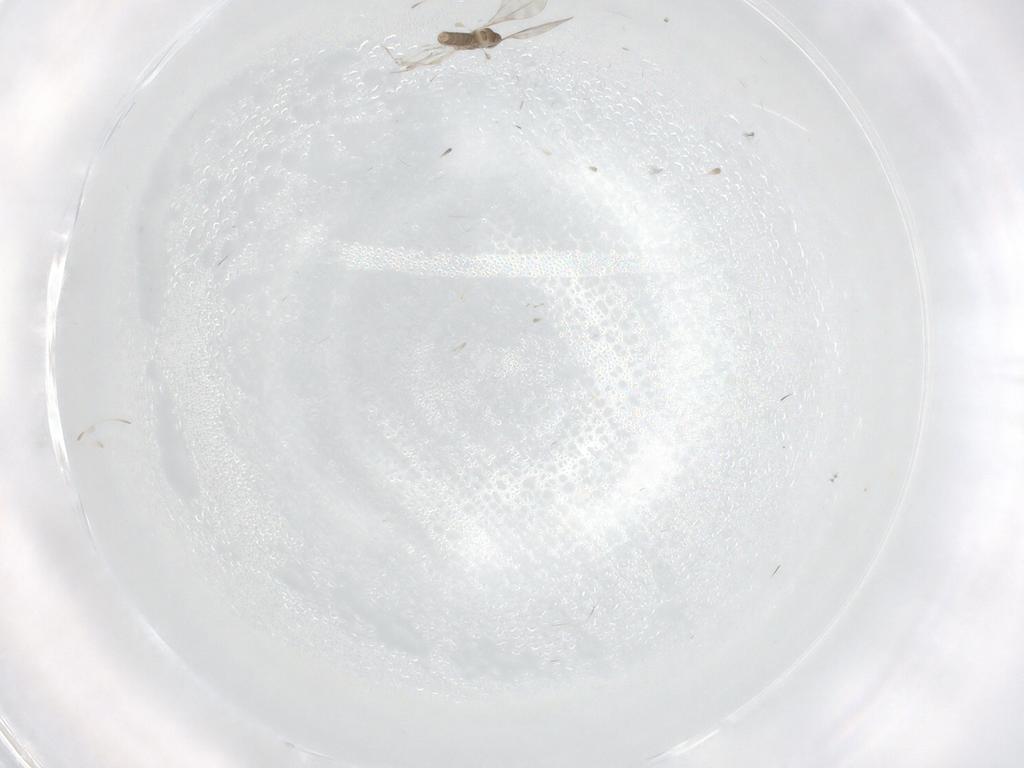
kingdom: Animalia
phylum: Arthropoda
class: Insecta
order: Diptera
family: Cecidomyiidae
